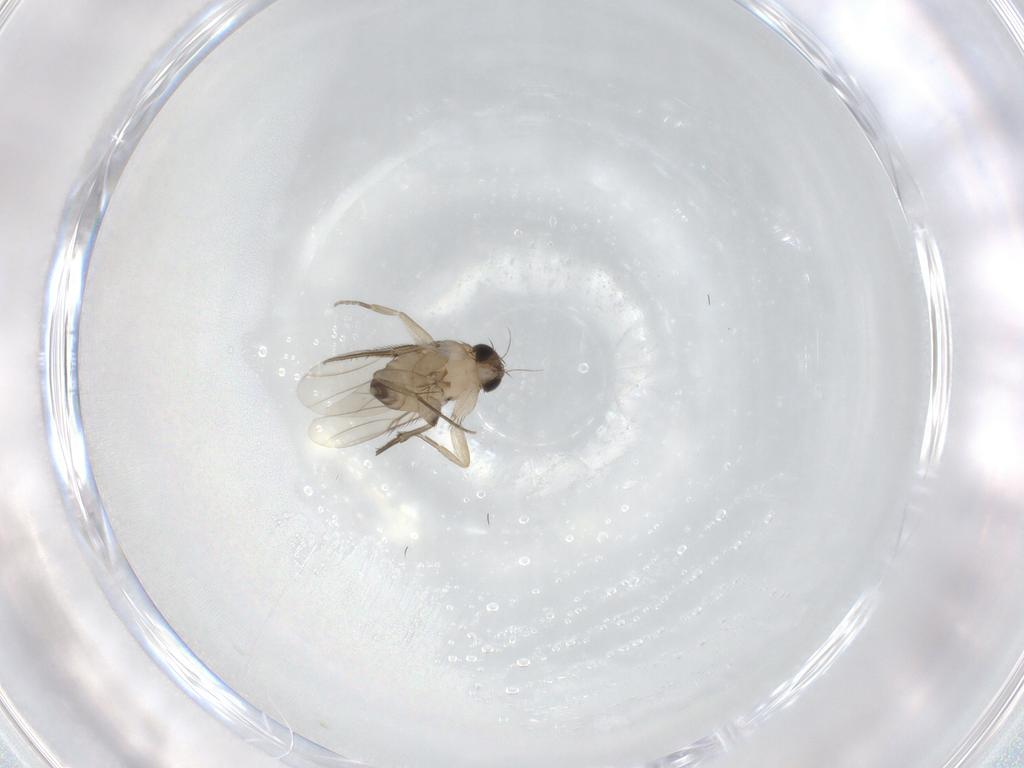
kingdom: Animalia
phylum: Arthropoda
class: Insecta
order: Diptera
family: Phoridae
